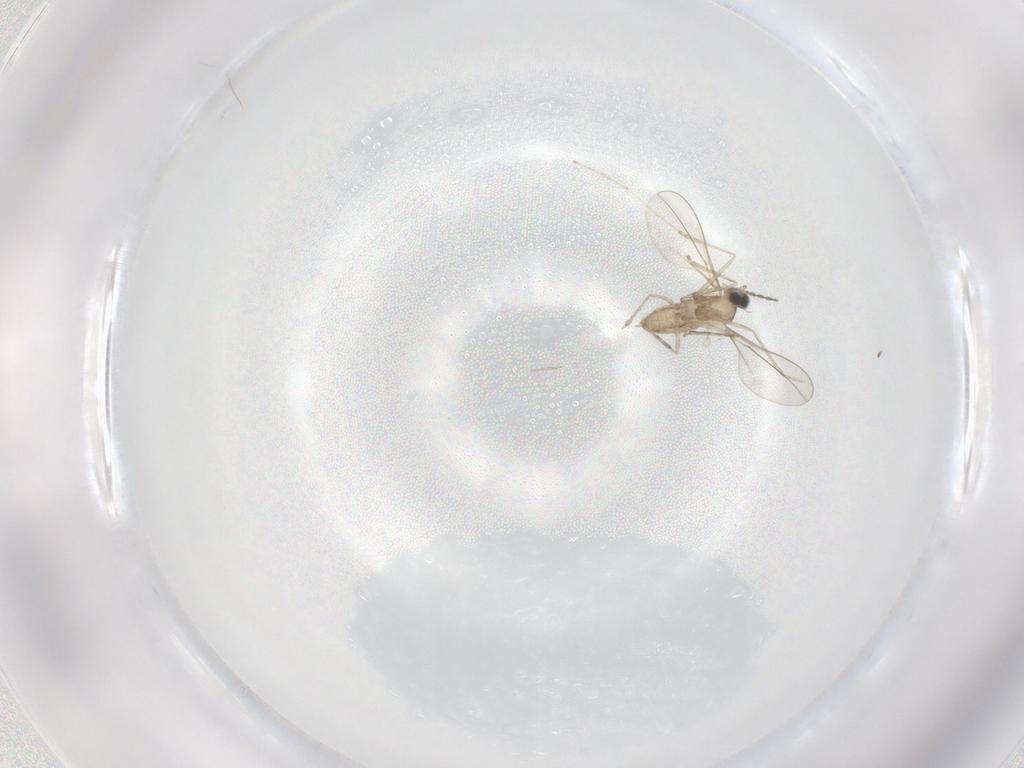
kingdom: Animalia
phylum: Arthropoda
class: Insecta
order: Diptera
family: Cecidomyiidae
